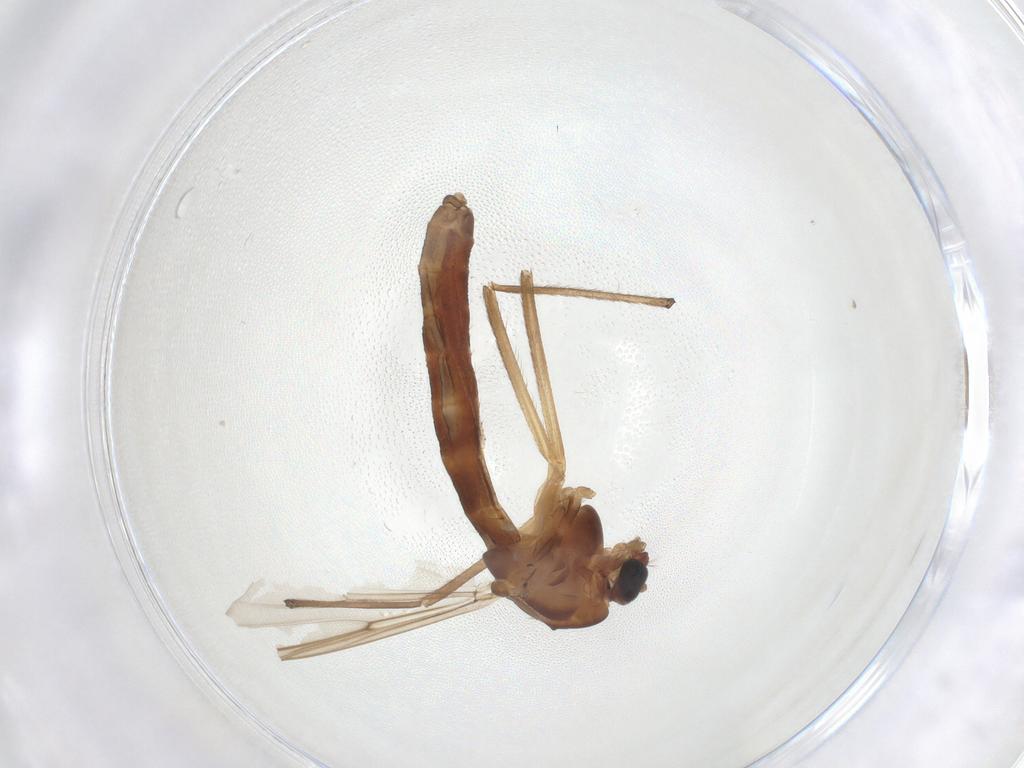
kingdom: Animalia
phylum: Arthropoda
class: Insecta
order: Diptera
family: Chironomidae
